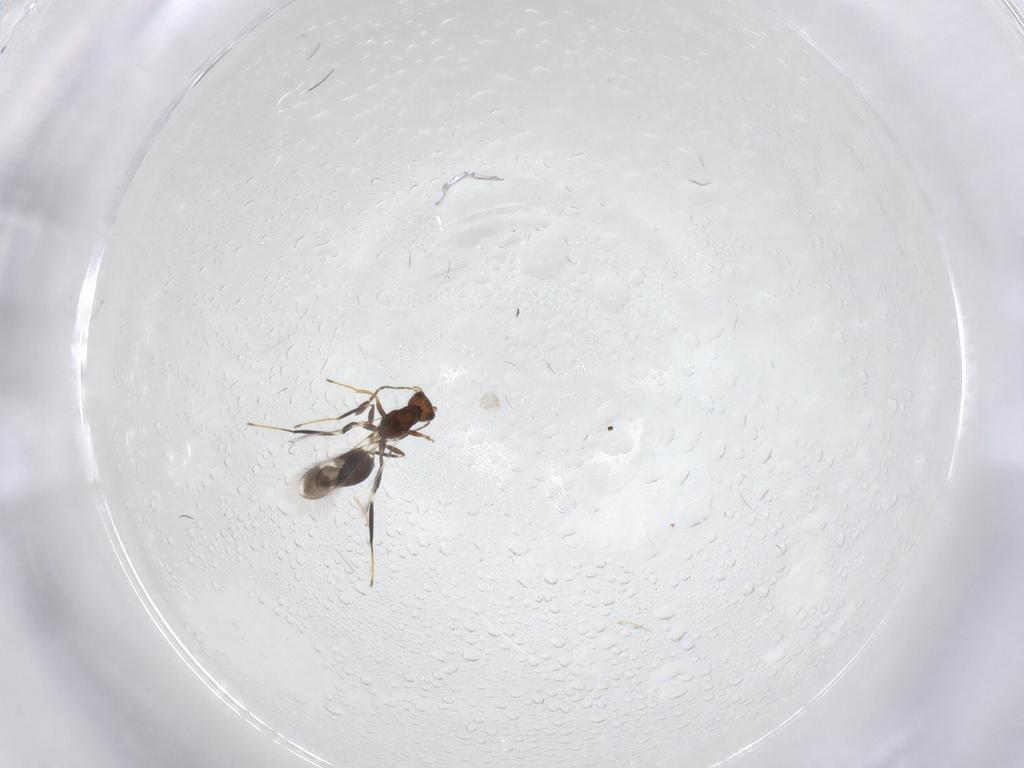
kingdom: Animalia
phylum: Arthropoda
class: Insecta
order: Hymenoptera
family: Mymaridae
